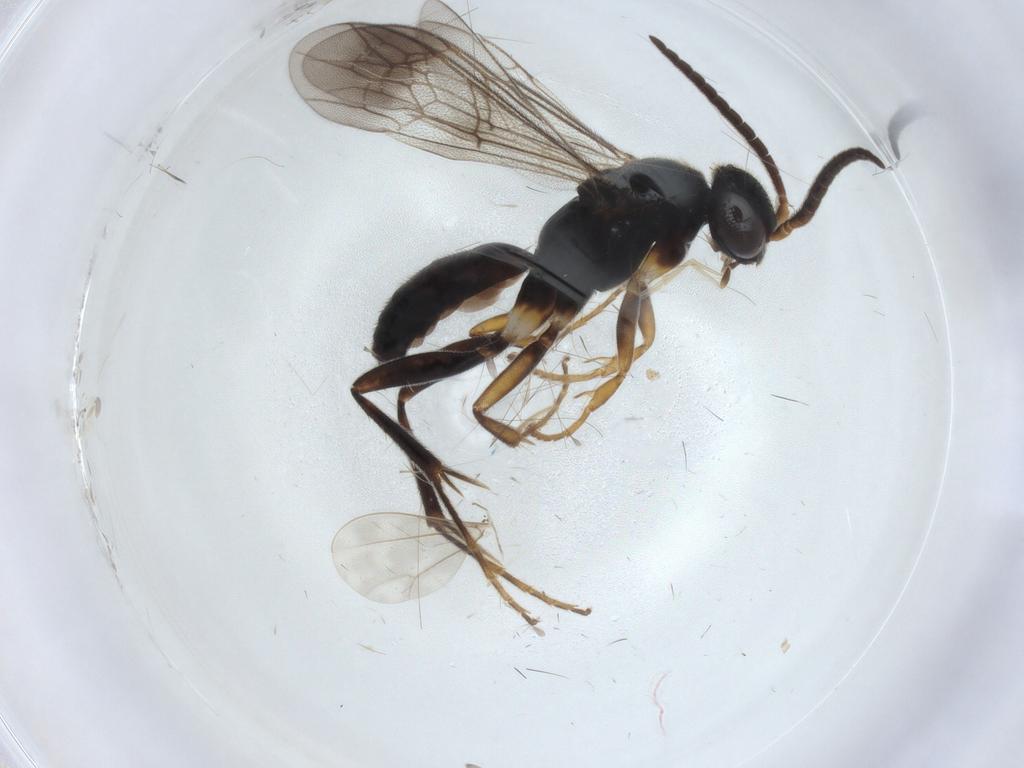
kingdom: Animalia
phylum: Arthropoda
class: Insecta
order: Hymenoptera
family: Pompilidae
